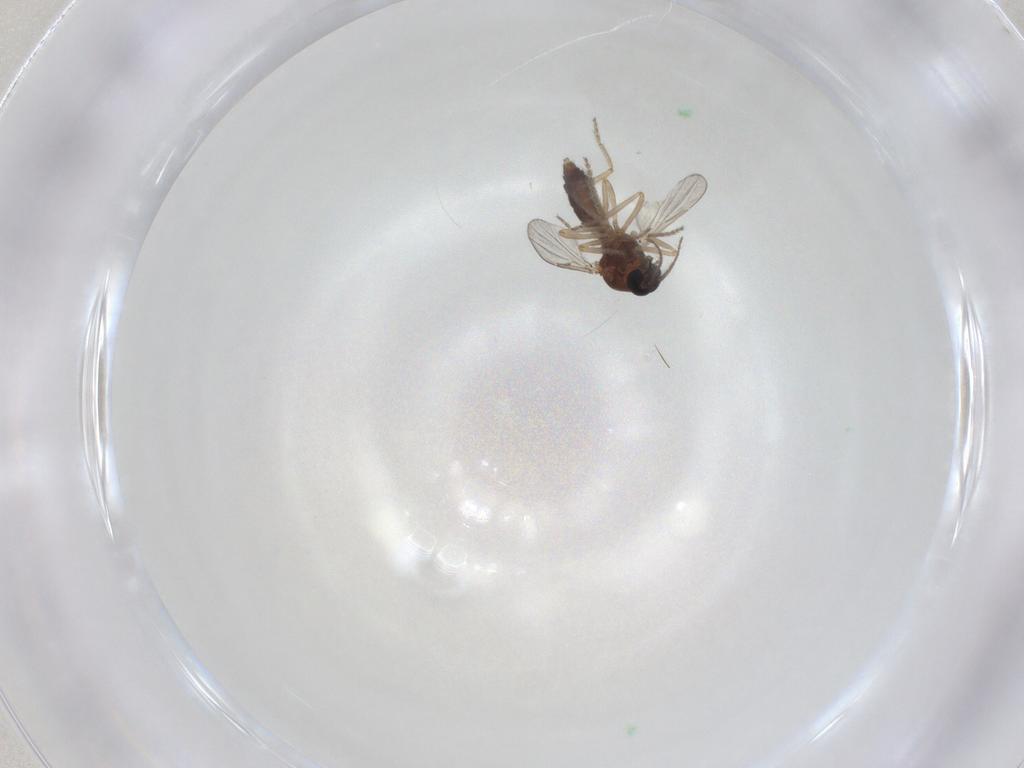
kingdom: Animalia
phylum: Arthropoda
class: Insecta
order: Diptera
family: Ceratopogonidae
